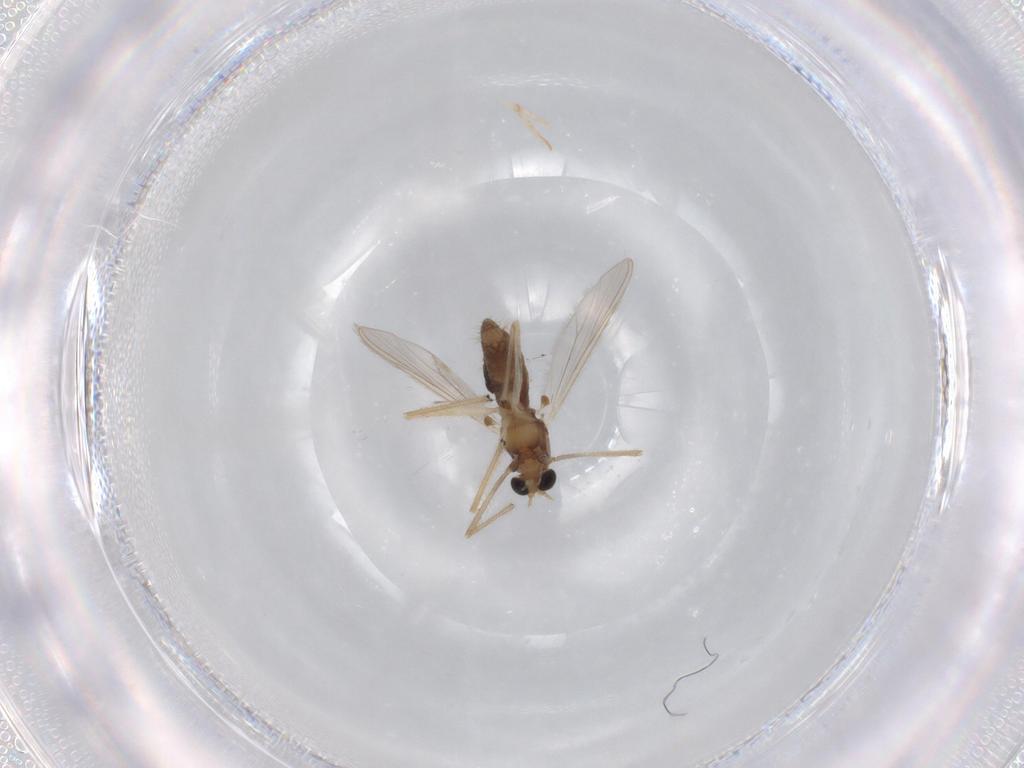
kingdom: Animalia
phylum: Arthropoda
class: Insecta
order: Diptera
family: Chironomidae
